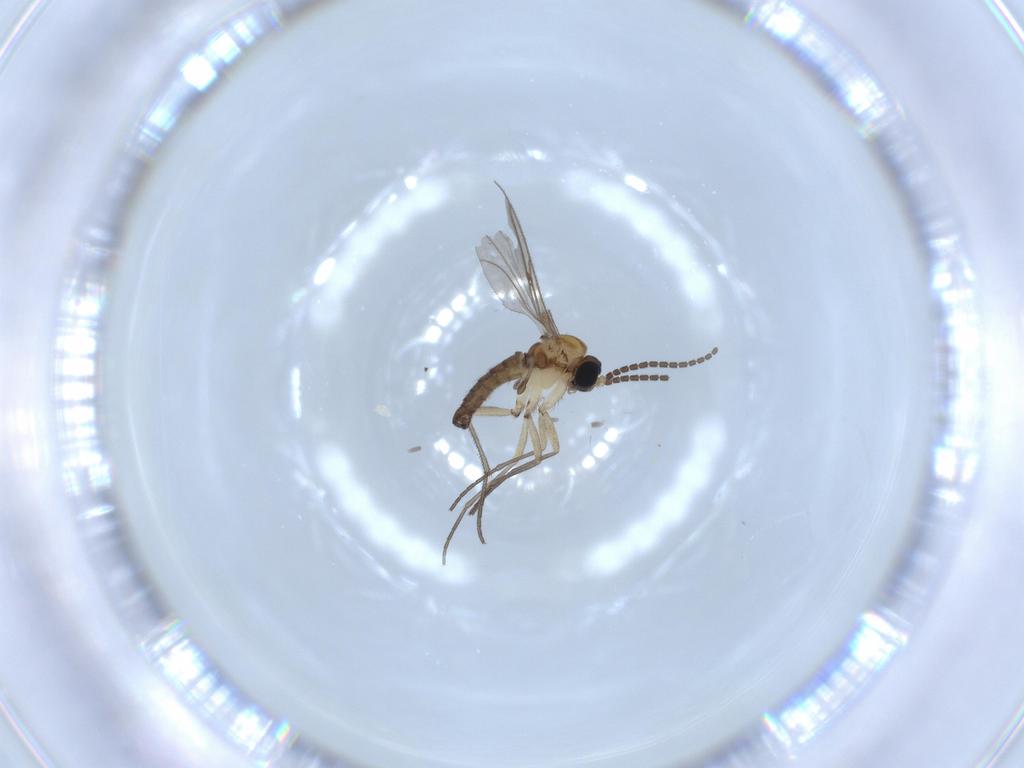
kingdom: Animalia
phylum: Arthropoda
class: Insecta
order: Diptera
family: Sciaridae
